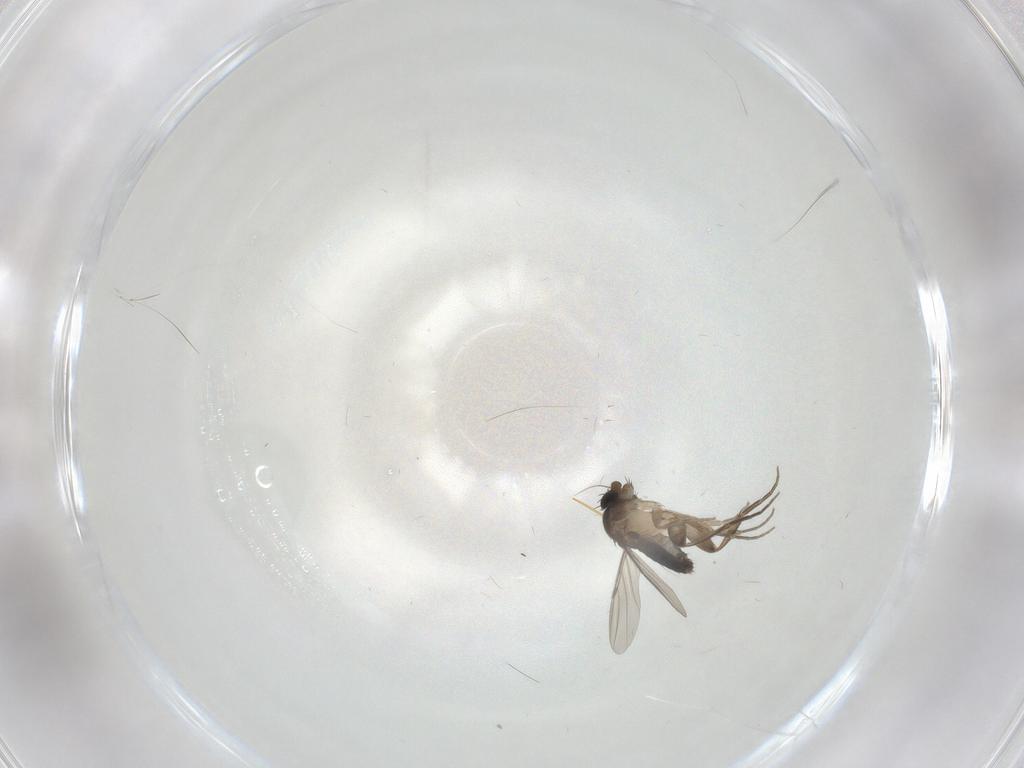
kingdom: Animalia
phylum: Arthropoda
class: Insecta
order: Diptera
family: Phoridae
